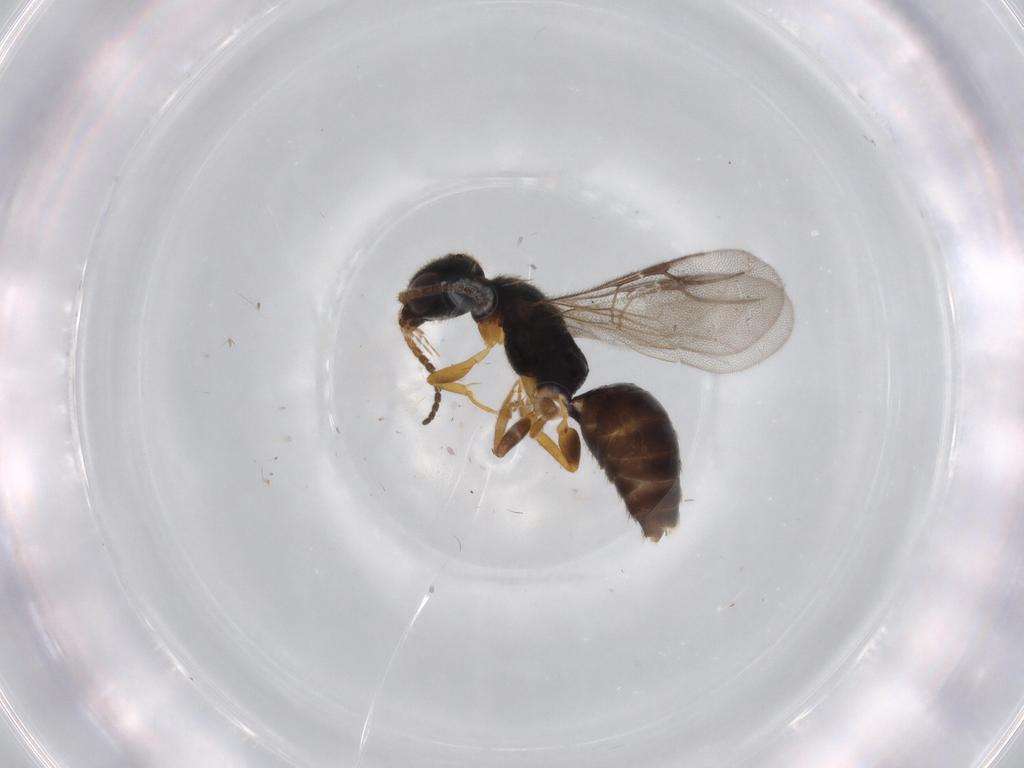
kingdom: Animalia
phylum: Arthropoda
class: Insecta
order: Hymenoptera
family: Bethylidae
